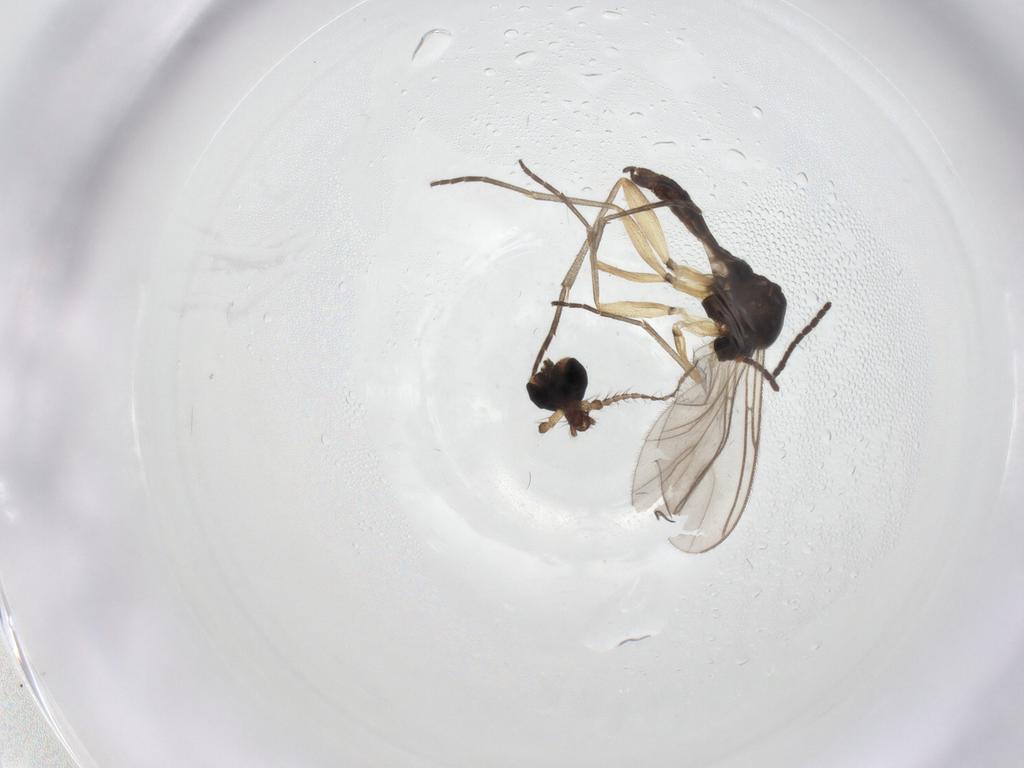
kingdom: Animalia
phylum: Arthropoda
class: Insecta
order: Diptera
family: Sciaridae
